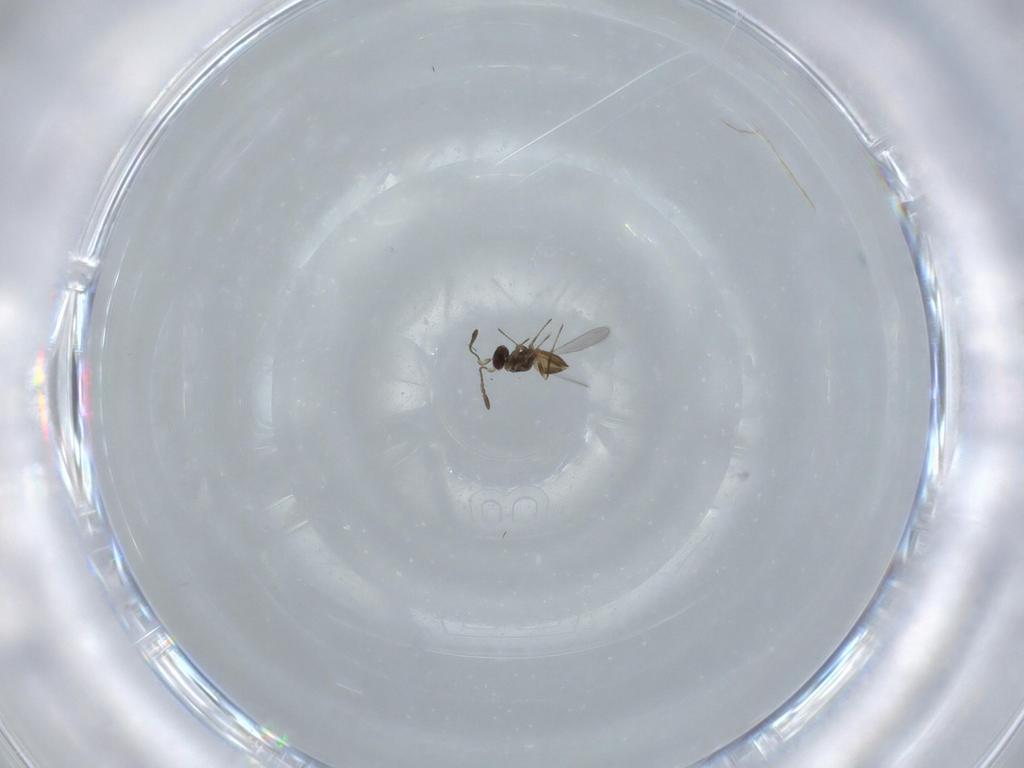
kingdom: Animalia
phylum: Arthropoda
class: Insecta
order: Hymenoptera
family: Mymaridae
